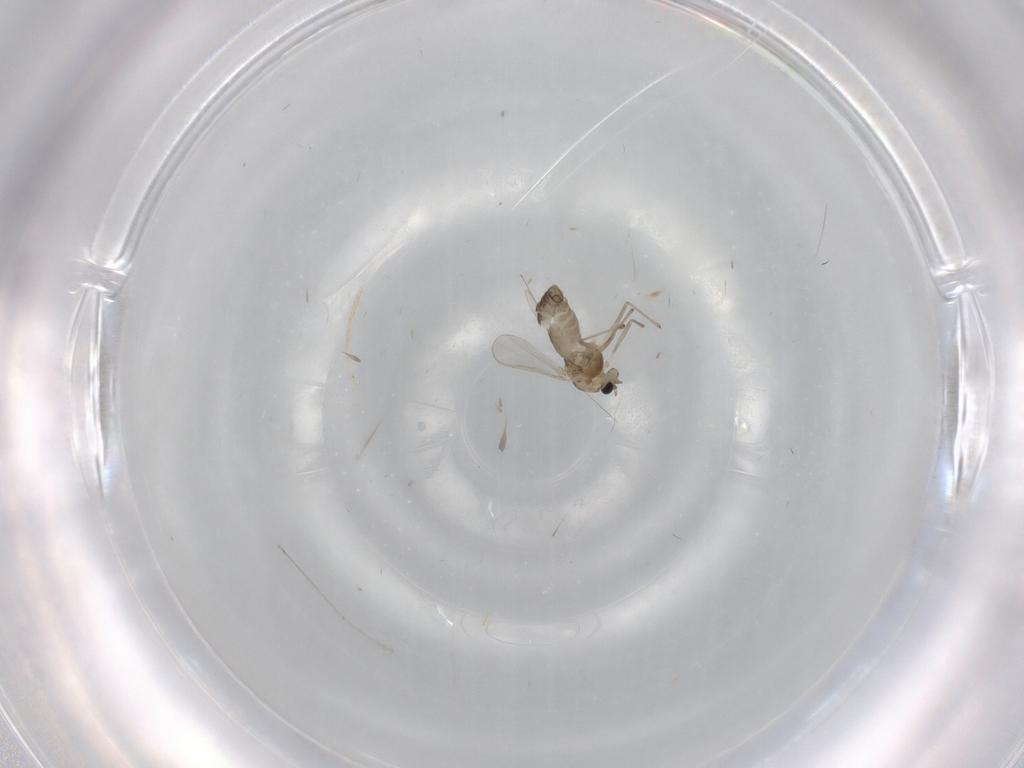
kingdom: Animalia
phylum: Arthropoda
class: Insecta
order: Diptera
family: Chironomidae
